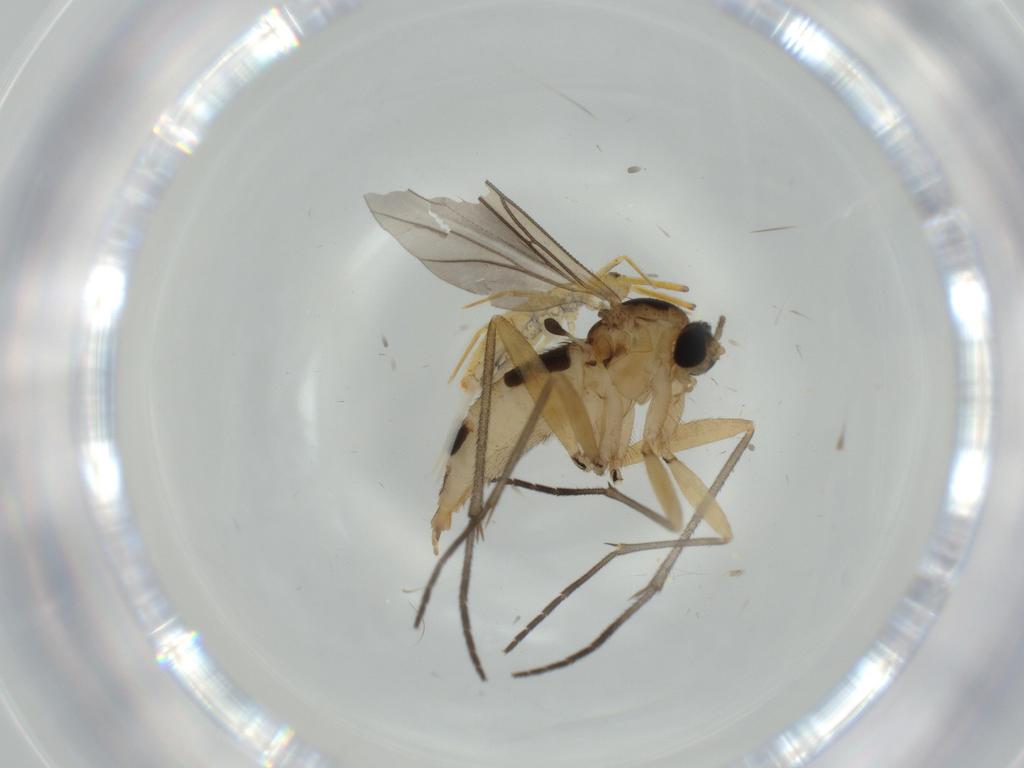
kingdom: Animalia
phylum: Arthropoda
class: Insecta
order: Diptera
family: Sciaridae
